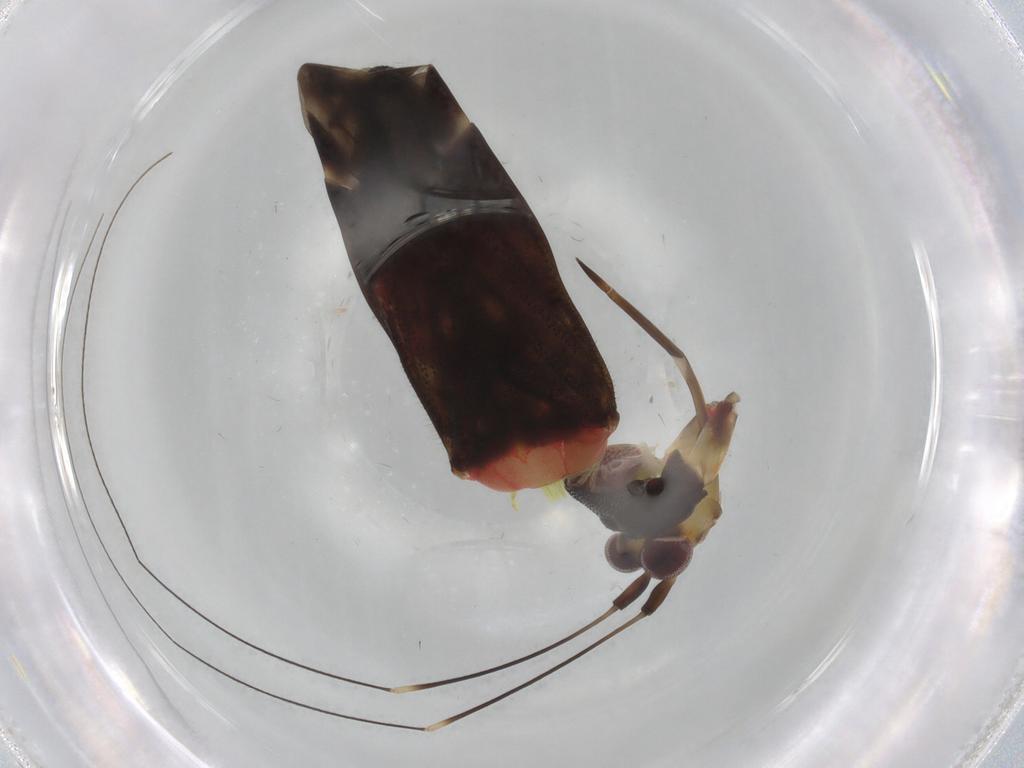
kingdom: Animalia
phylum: Arthropoda
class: Insecta
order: Hemiptera
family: Miridae
